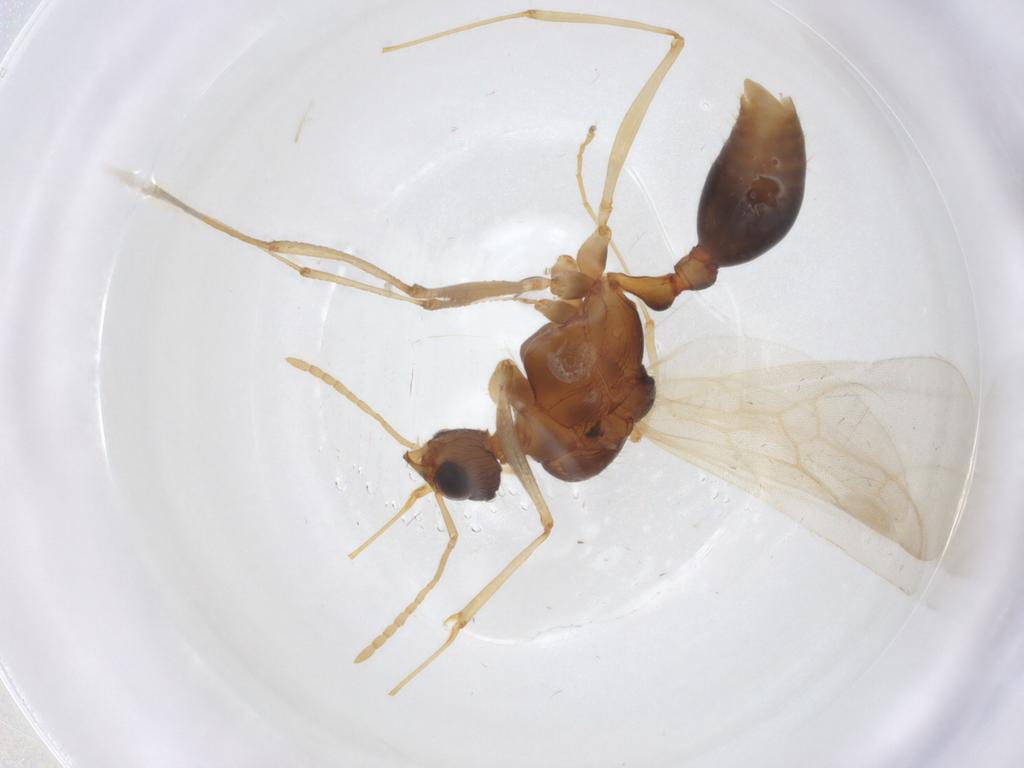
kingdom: Animalia
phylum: Arthropoda
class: Insecta
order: Hymenoptera
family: Formicidae
